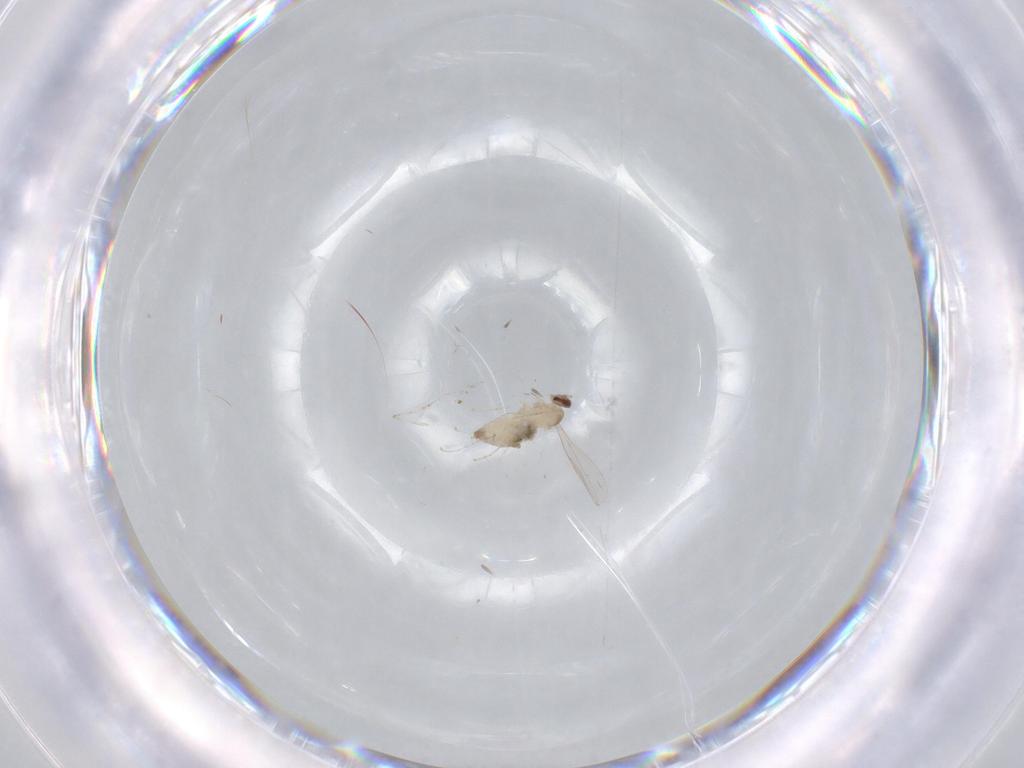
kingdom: Animalia
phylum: Arthropoda
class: Insecta
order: Diptera
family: Cecidomyiidae
